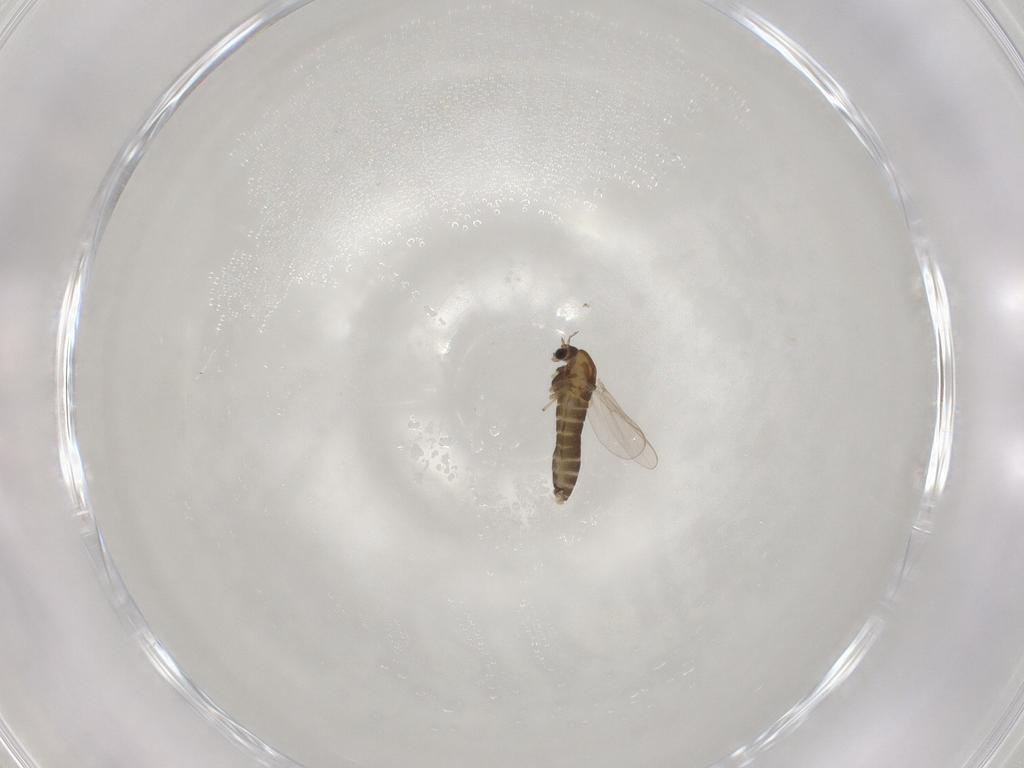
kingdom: Animalia
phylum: Arthropoda
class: Insecta
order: Diptera
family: Chironomidae
